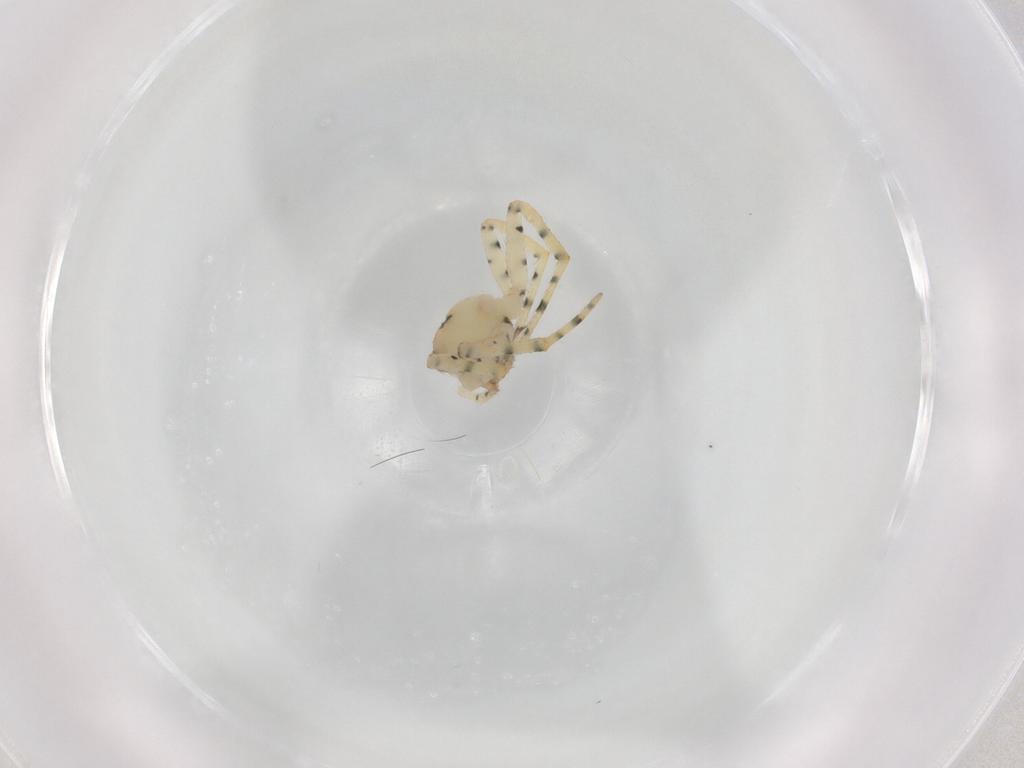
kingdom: Animalia
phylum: Arthropoda
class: Arachnida
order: Araneae
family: Theridiidae
